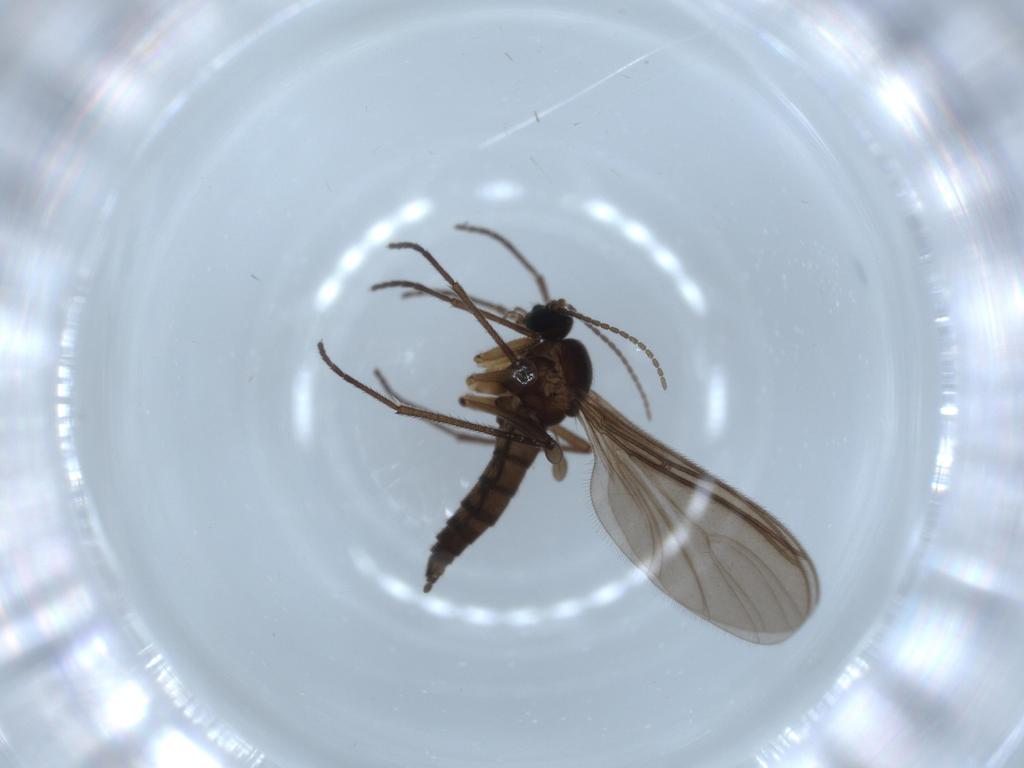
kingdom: Animalia
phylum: Arthropoda
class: Insecta
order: Diptera
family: Sciaridae
